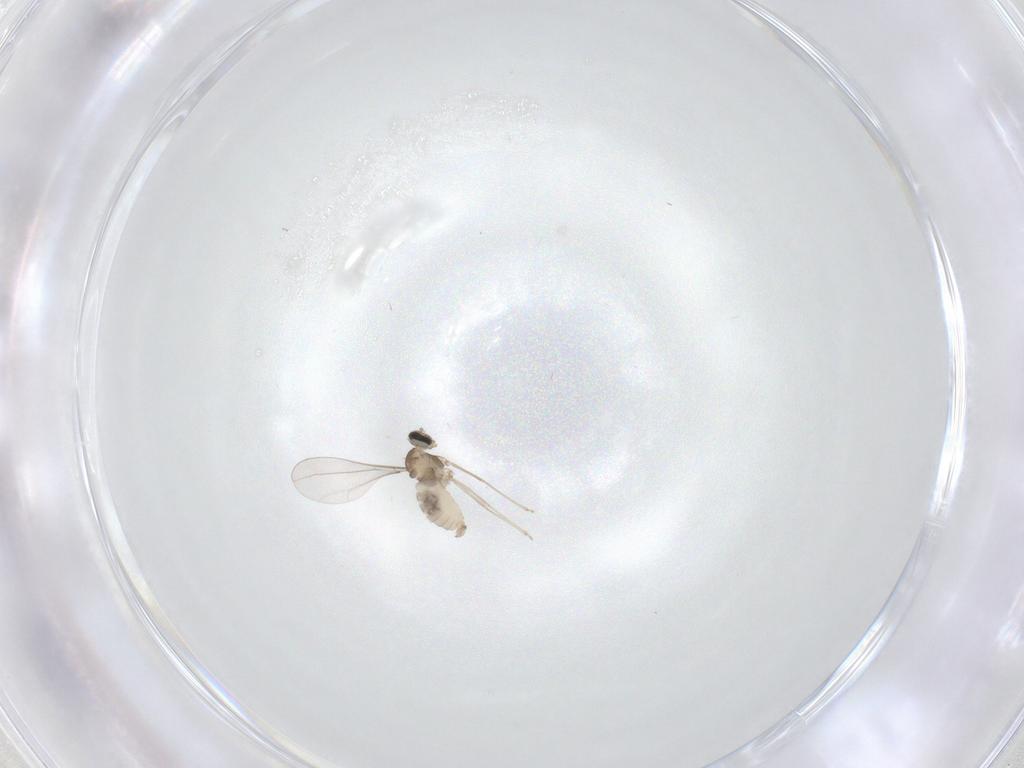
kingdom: Animalia
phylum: Arthropoda
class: Insecta
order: Diptera
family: Cecidomyiidae
